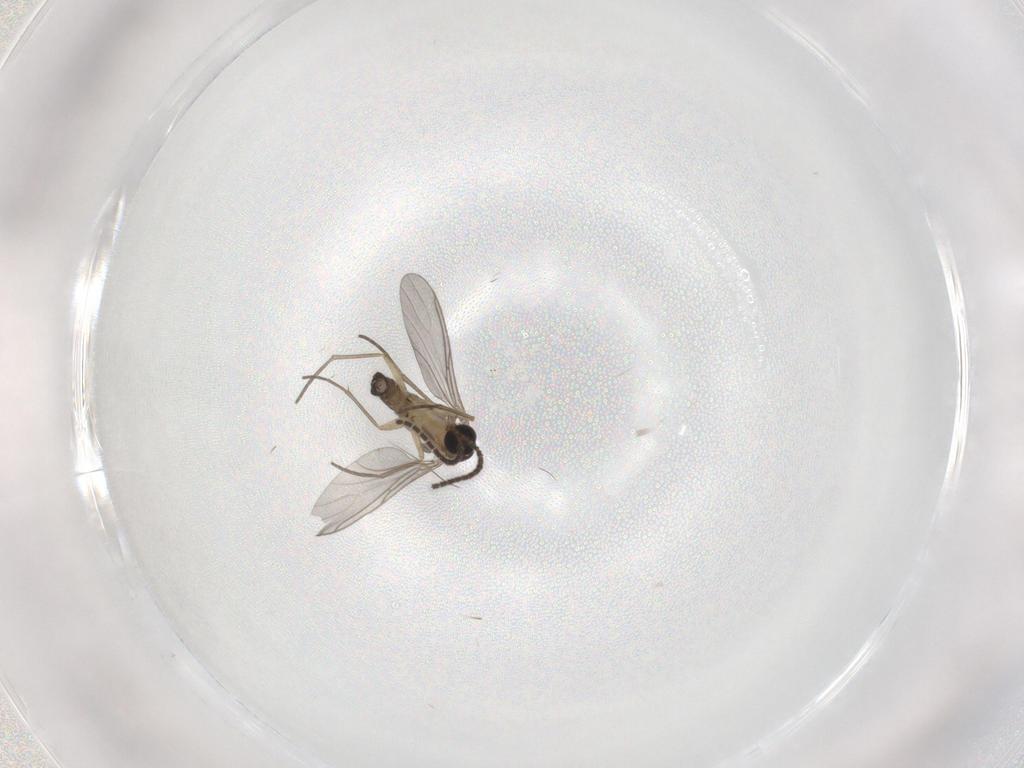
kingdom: Animalia
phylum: Arthropoda
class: Insecta
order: Diptera
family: Sciaridae
